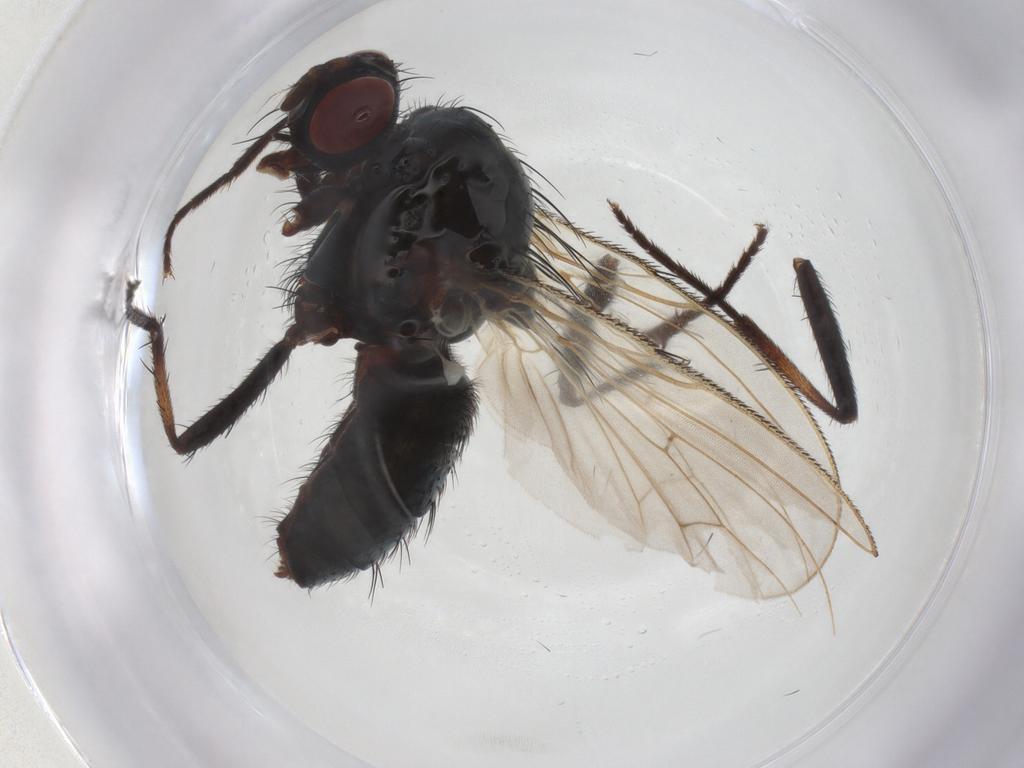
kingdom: Animalia
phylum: Arthropoda
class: Insecta
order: Diptera
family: Anthomyiidae
